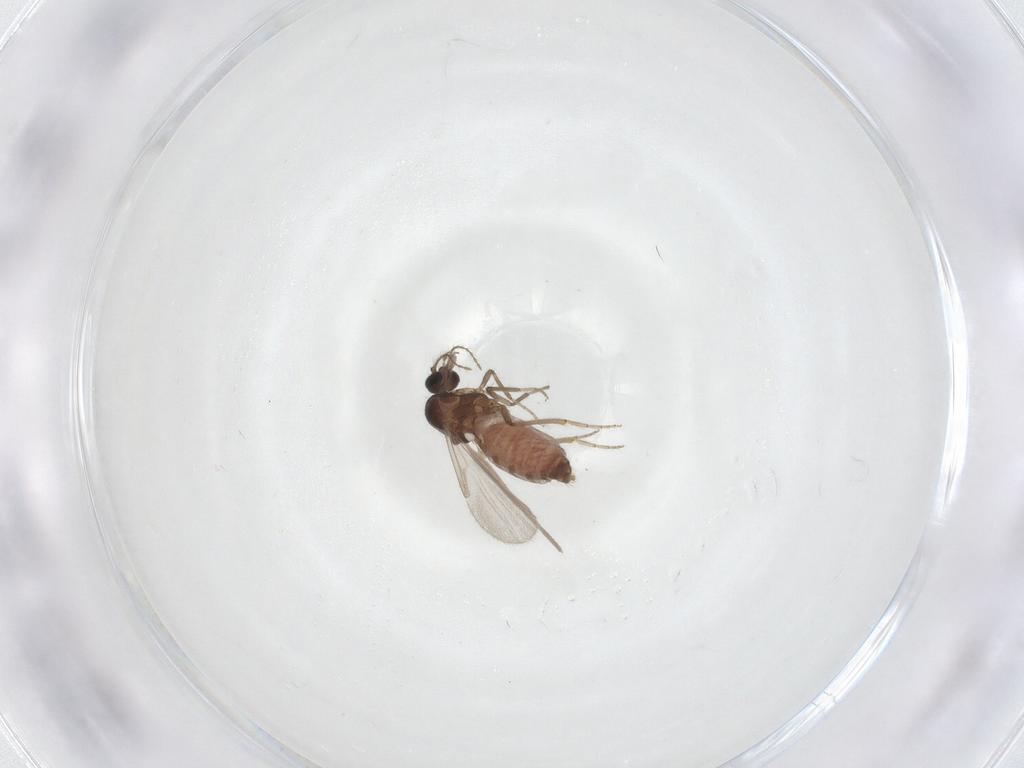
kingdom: Animalia
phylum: Arthropoda
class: Insecta
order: Diptera
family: Ceratopogonidae
